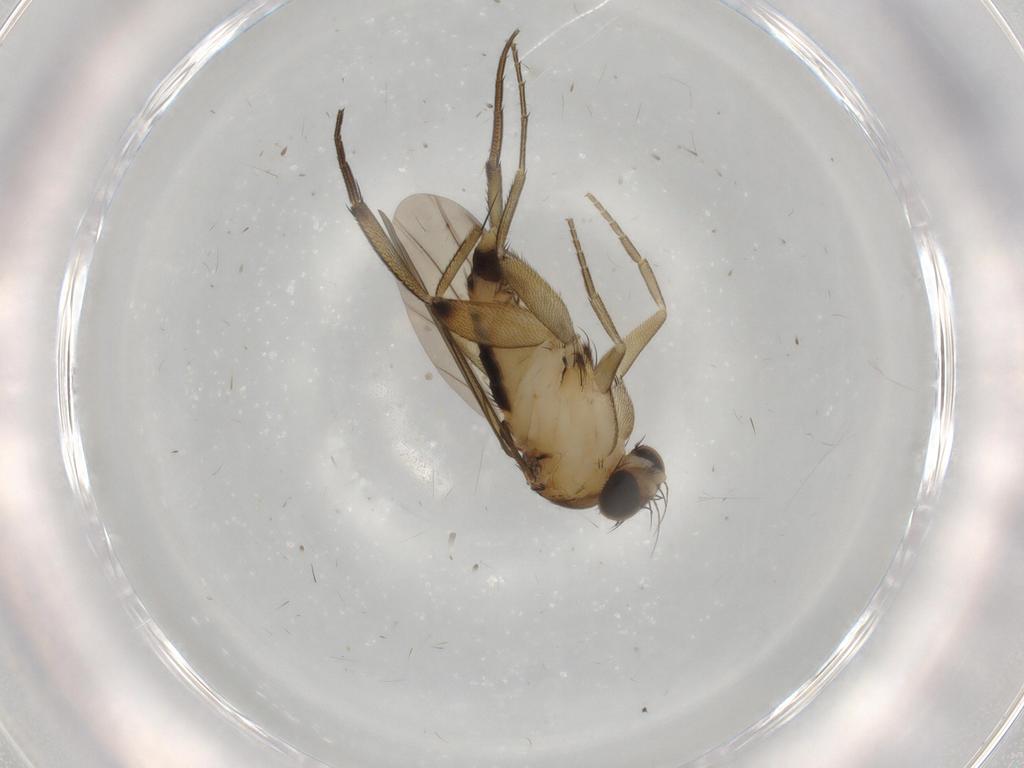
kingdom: Animalia
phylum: Arthropoda
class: Insecta
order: Diptera
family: Phoridae
